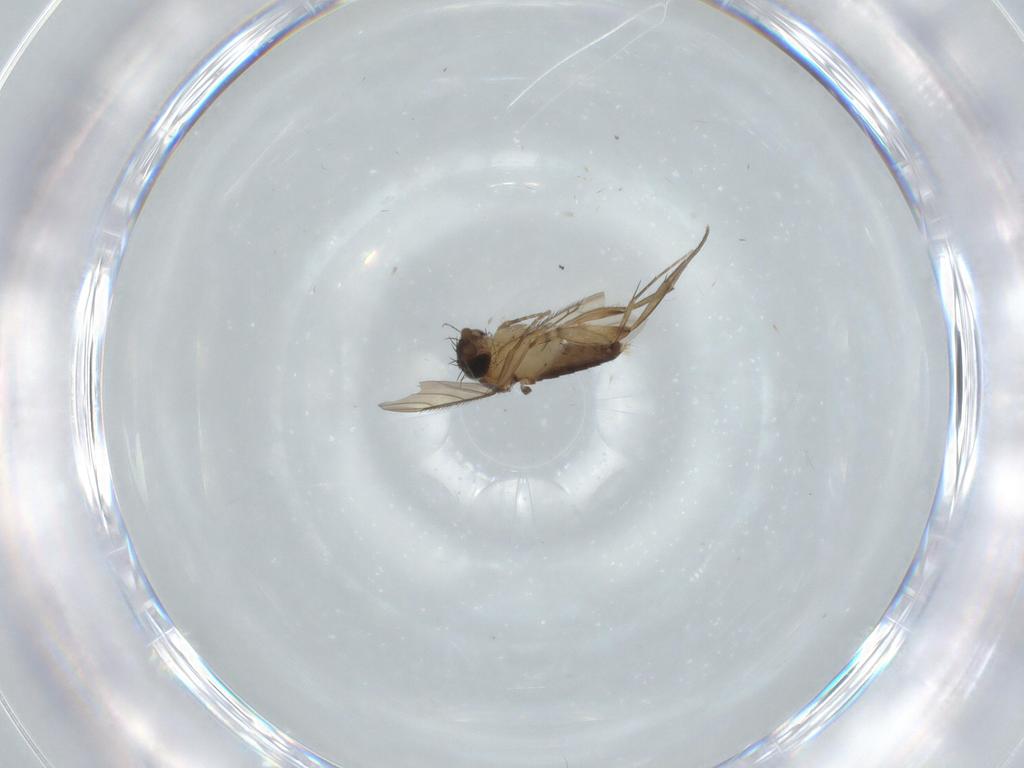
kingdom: Animalia
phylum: Arthropoda
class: Insecta
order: Diptera
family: Phoridae
